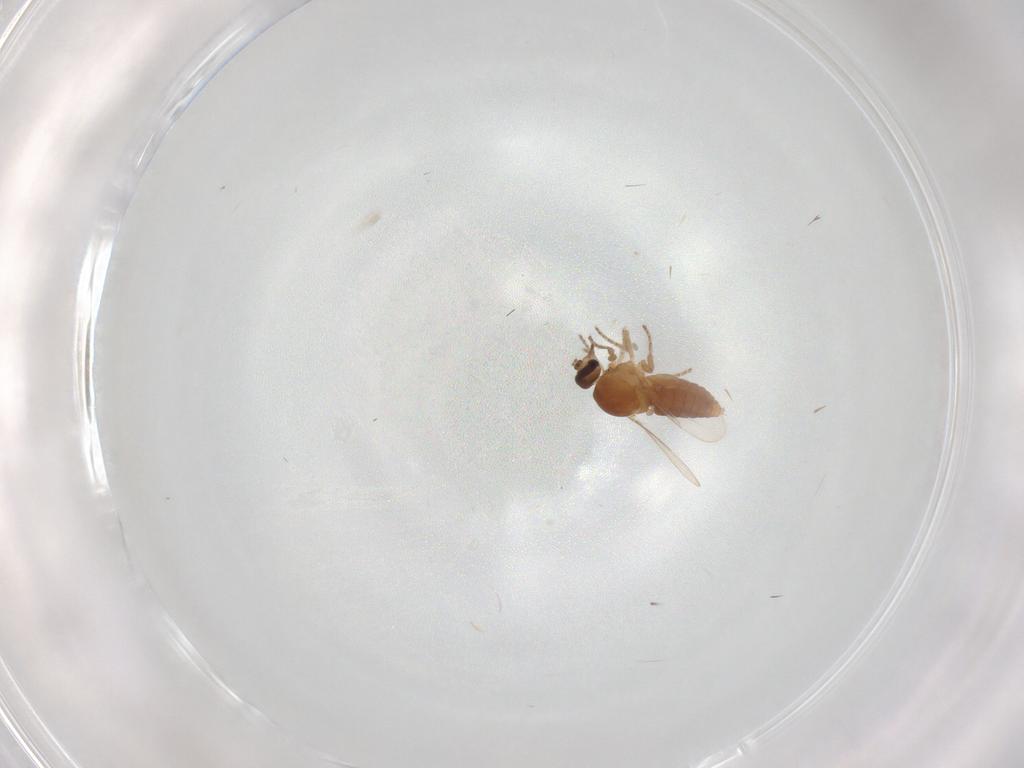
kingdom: Animalia
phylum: Arthropoda
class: Insecta
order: Diptera
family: Ceratopogonidae
